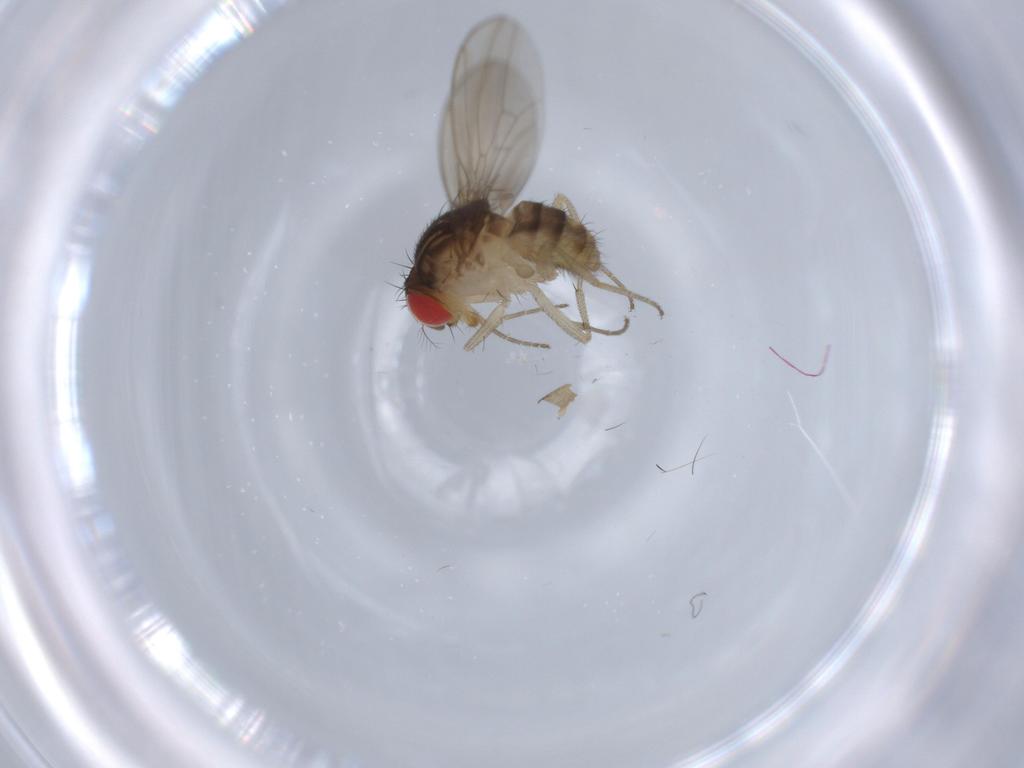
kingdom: Animalia
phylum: Arthropoda
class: Insecta
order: Diptera
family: Drosophilidae
